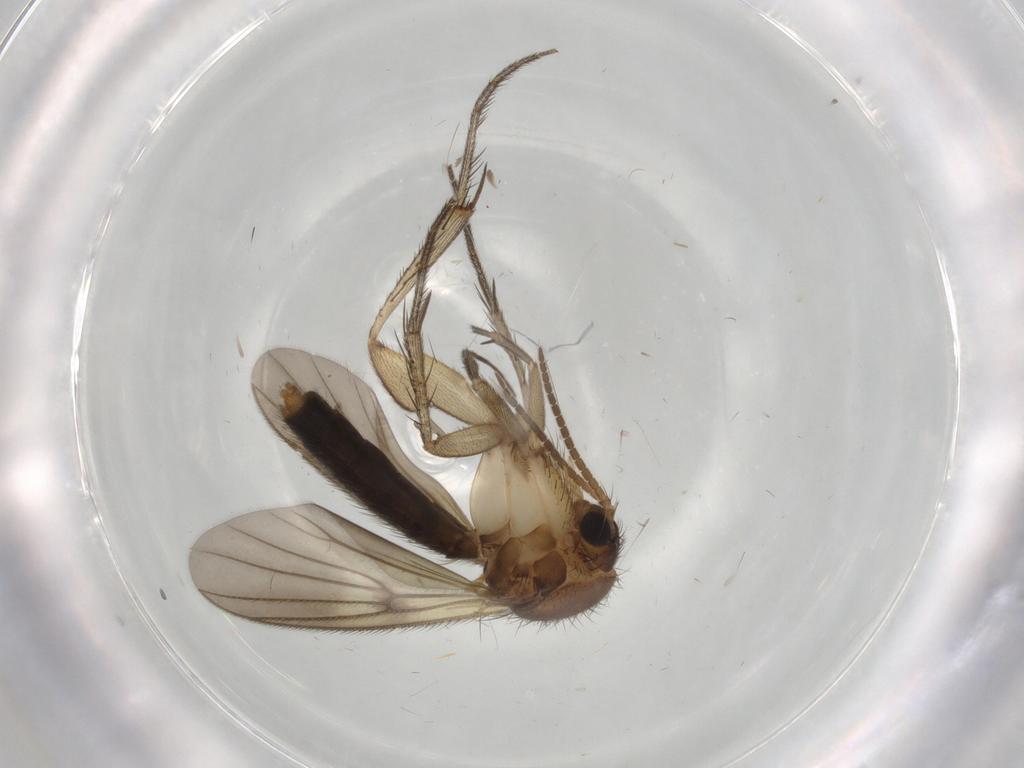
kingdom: Animalia
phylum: Arthropoda
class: Insecta
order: Diptera
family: Mycetophilidae
